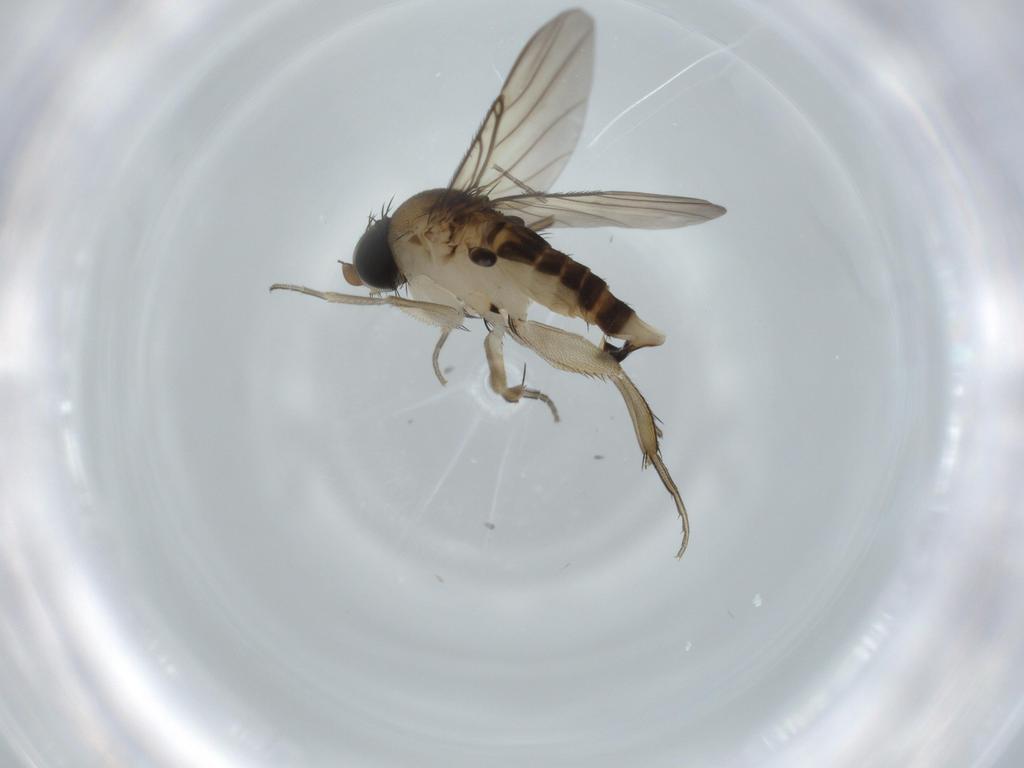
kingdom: Animalia
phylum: Arthropoda
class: Insecta
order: Diptera
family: Phoridae
